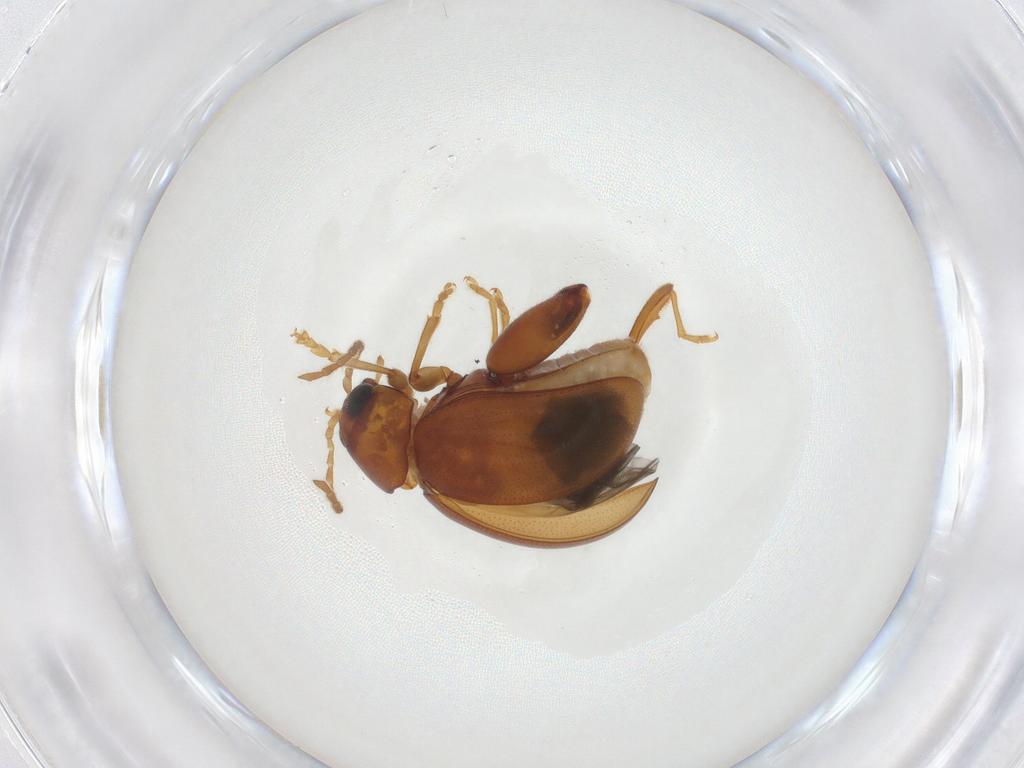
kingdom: Animalia
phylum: Arthropoda
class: Insecta
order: Coleoptera
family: Chrysomelidae
